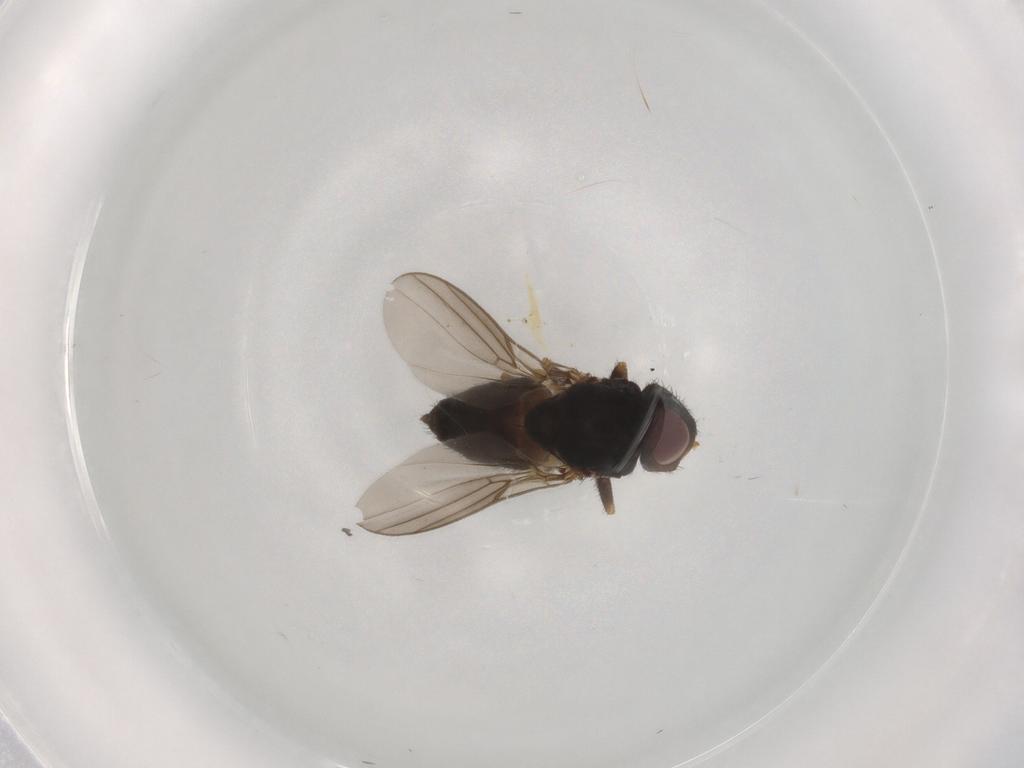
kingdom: Animalia
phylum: Arthropoda
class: Insecta
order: Diptera
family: Chloropidae
